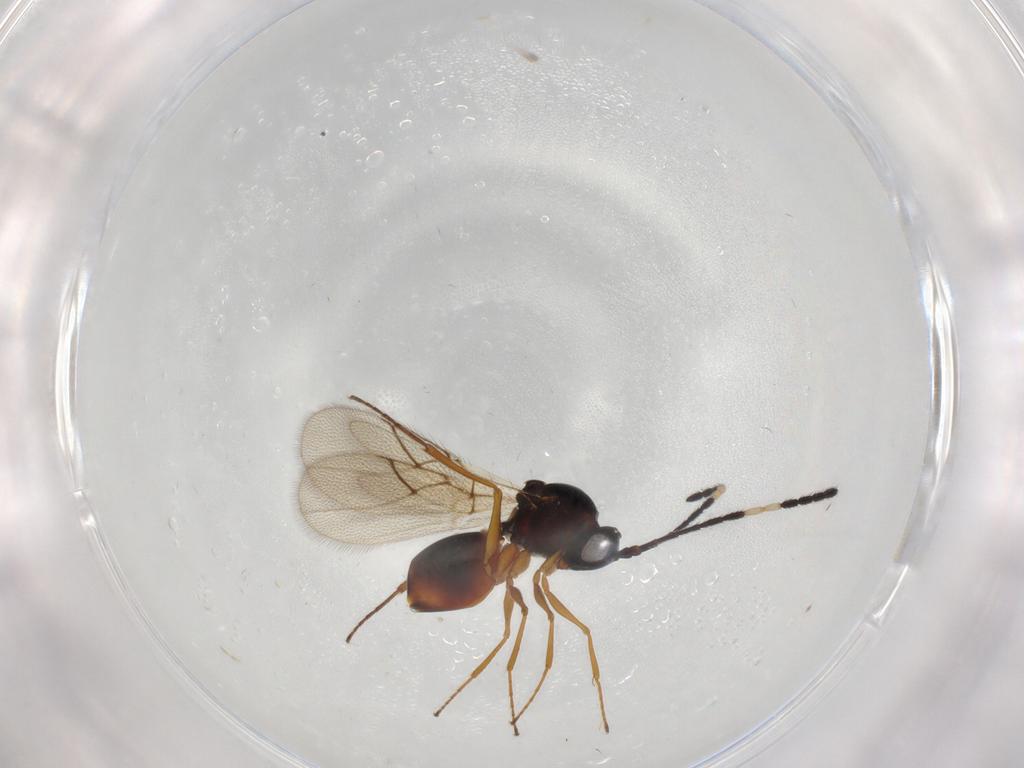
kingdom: Animalia
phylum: Arthropoda
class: Insecta
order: Hymenoptera
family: Figitidae
